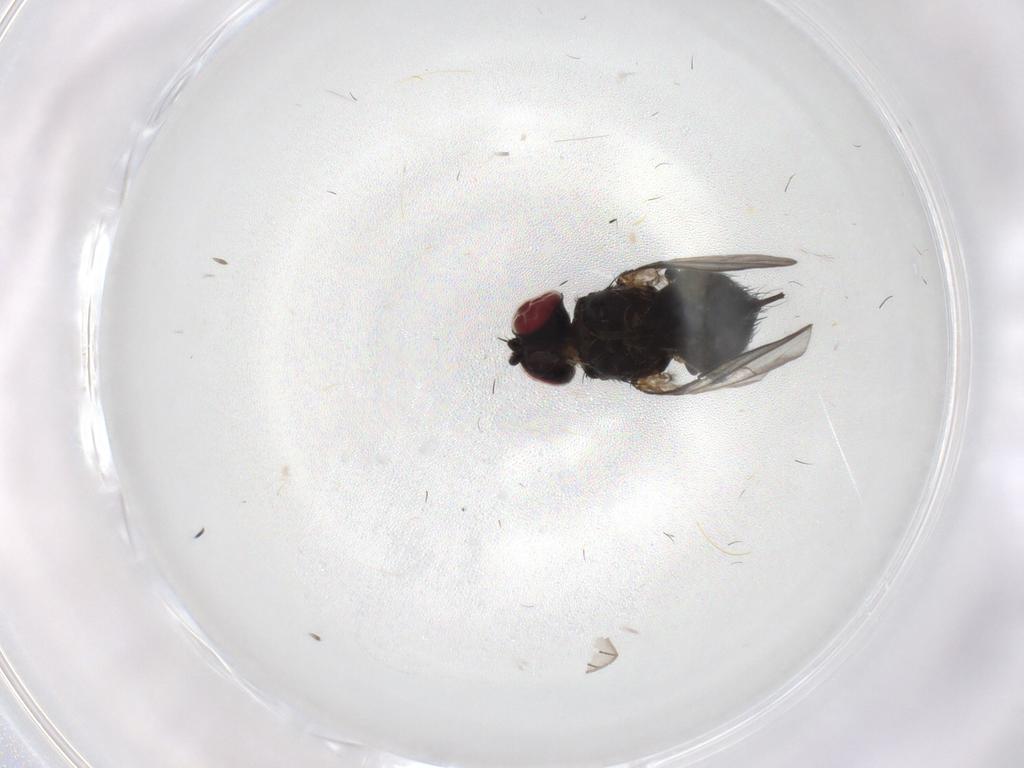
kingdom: Animalia
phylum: Arthropoda
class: Insecta
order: Diptera
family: Agromyzidae
